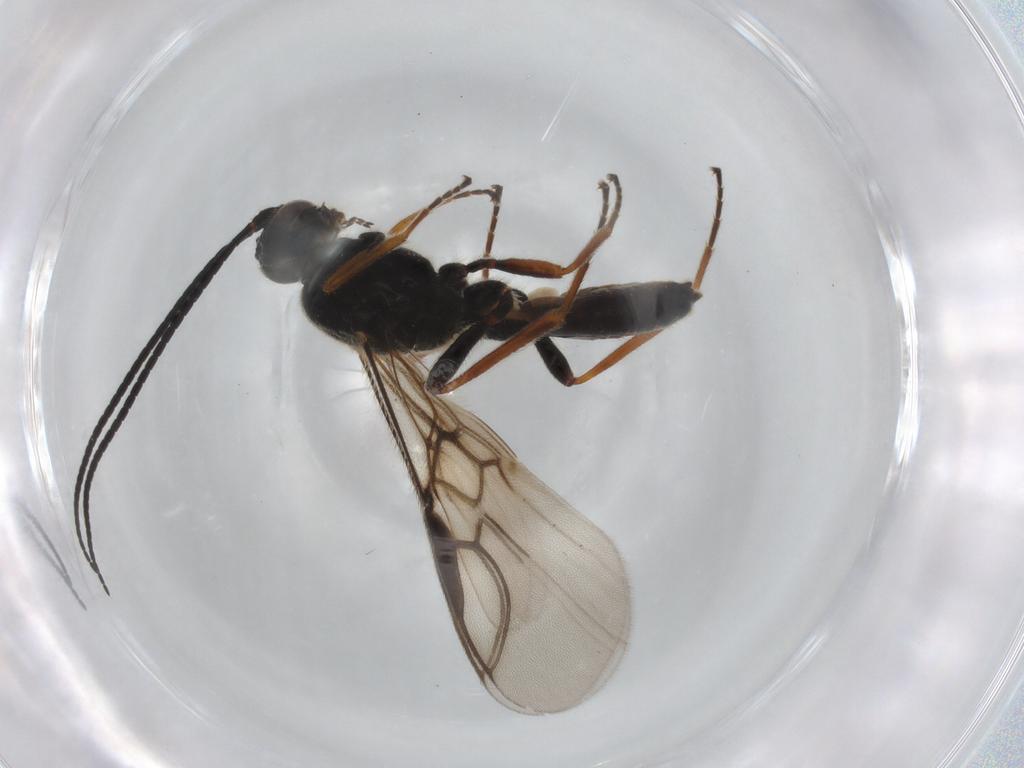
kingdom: Animalia
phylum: Arthropoda
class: Insecta
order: Hymenoptera
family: Braconidae
